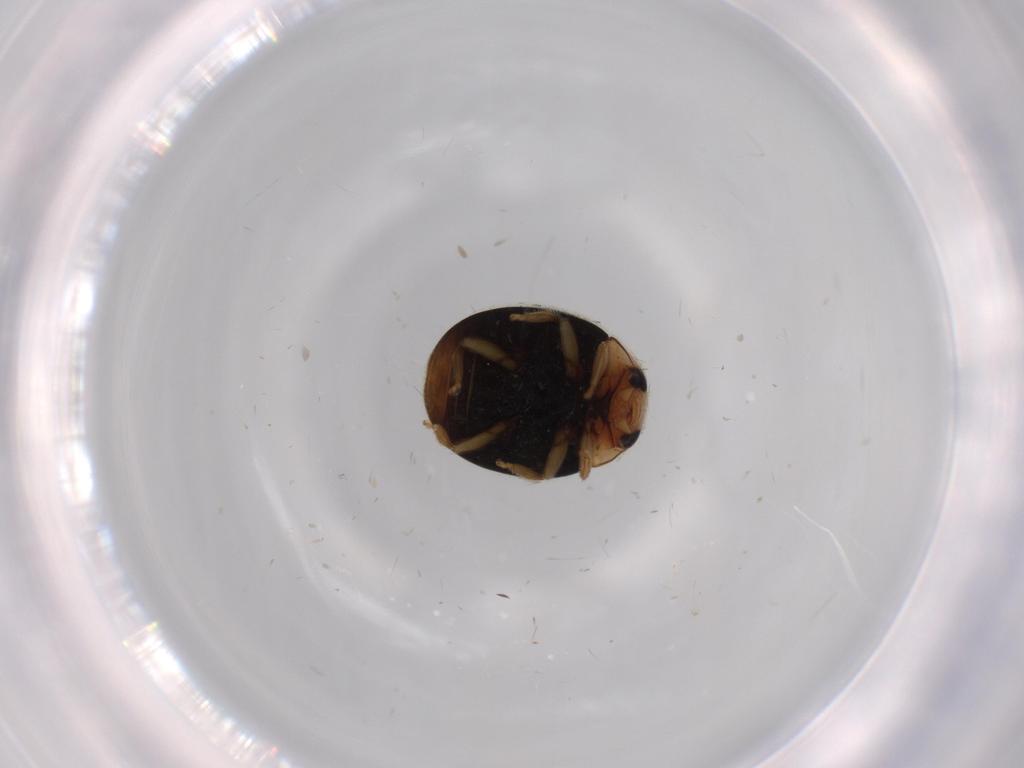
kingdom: Animalia
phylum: Arthropoda
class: Insecta
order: Coleoptera
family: Coccinellidae
